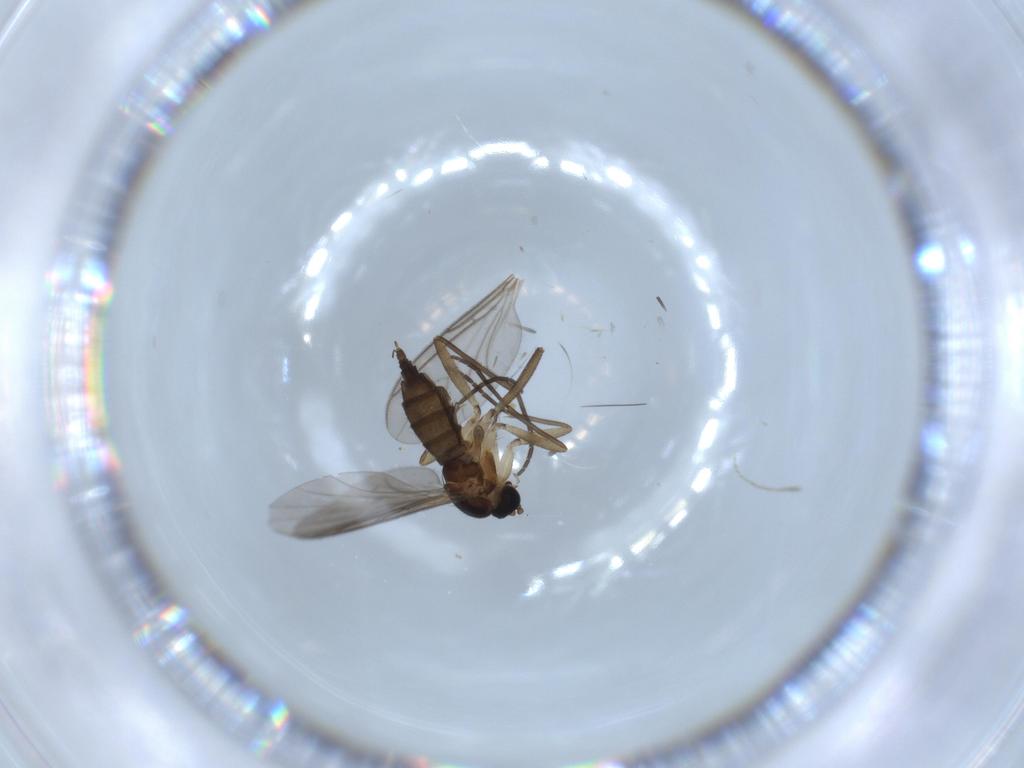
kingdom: Animalia
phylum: Arthropoda
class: Insecta
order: Diptera
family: Sciaridae
